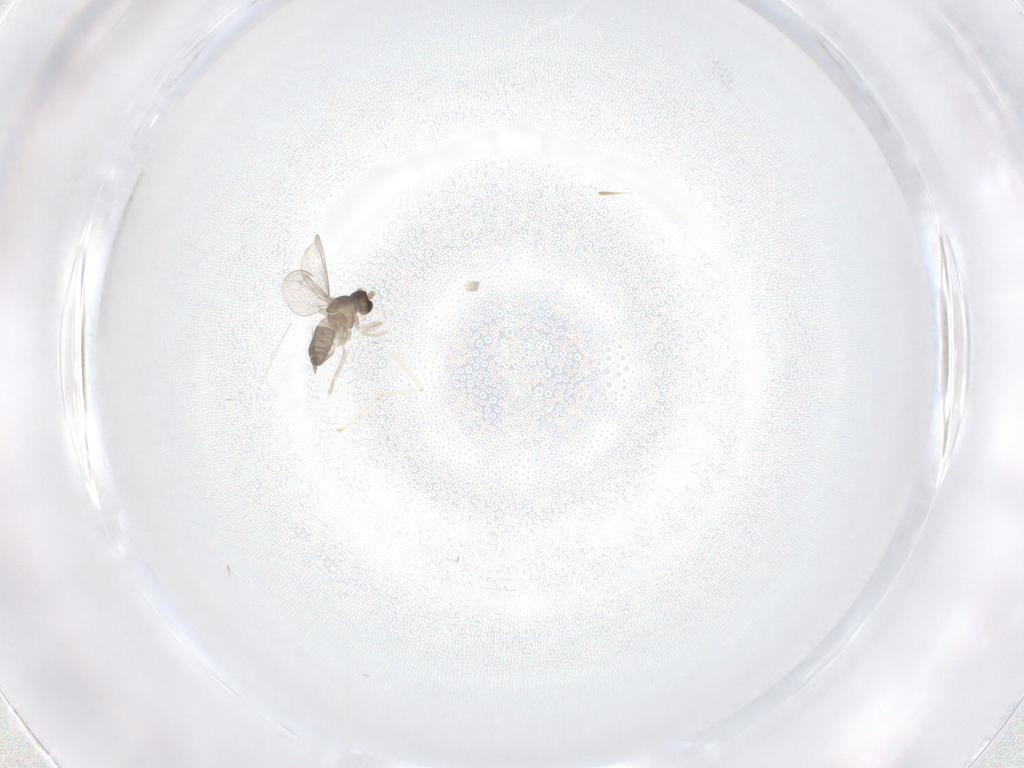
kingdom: Animalia
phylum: Arthropoda
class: Insecta
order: Diptera
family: Cecidomyiidae
